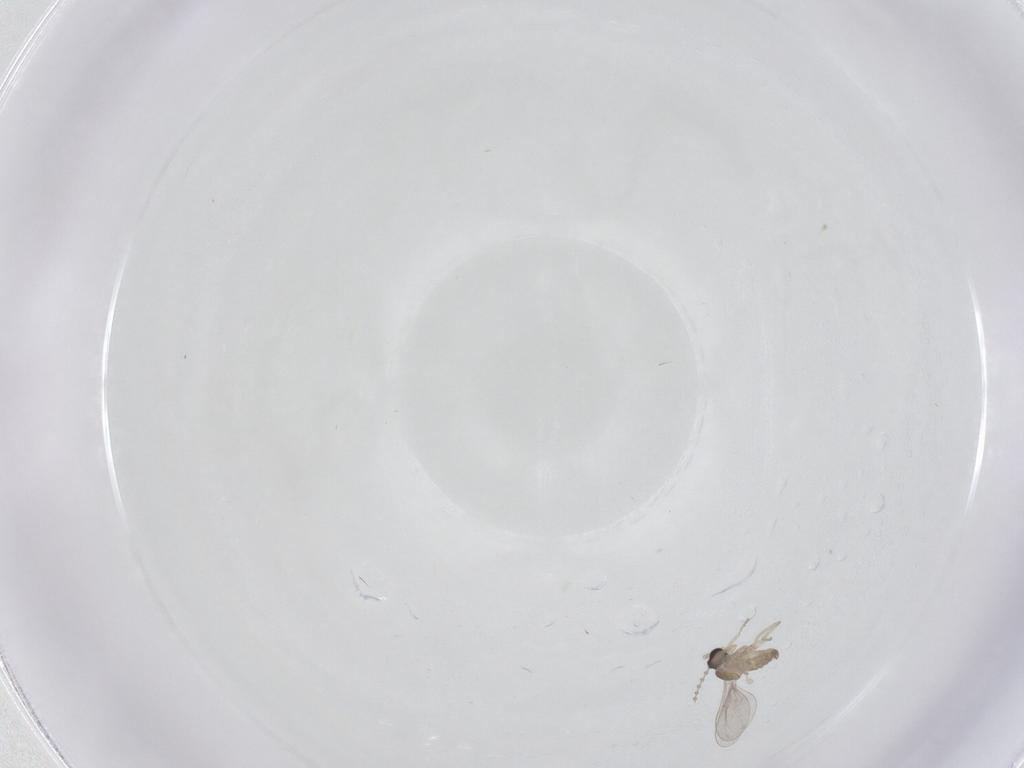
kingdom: Animalia
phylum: Arthropoda
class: Insecta
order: Diptera
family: Cecidomyiidae
